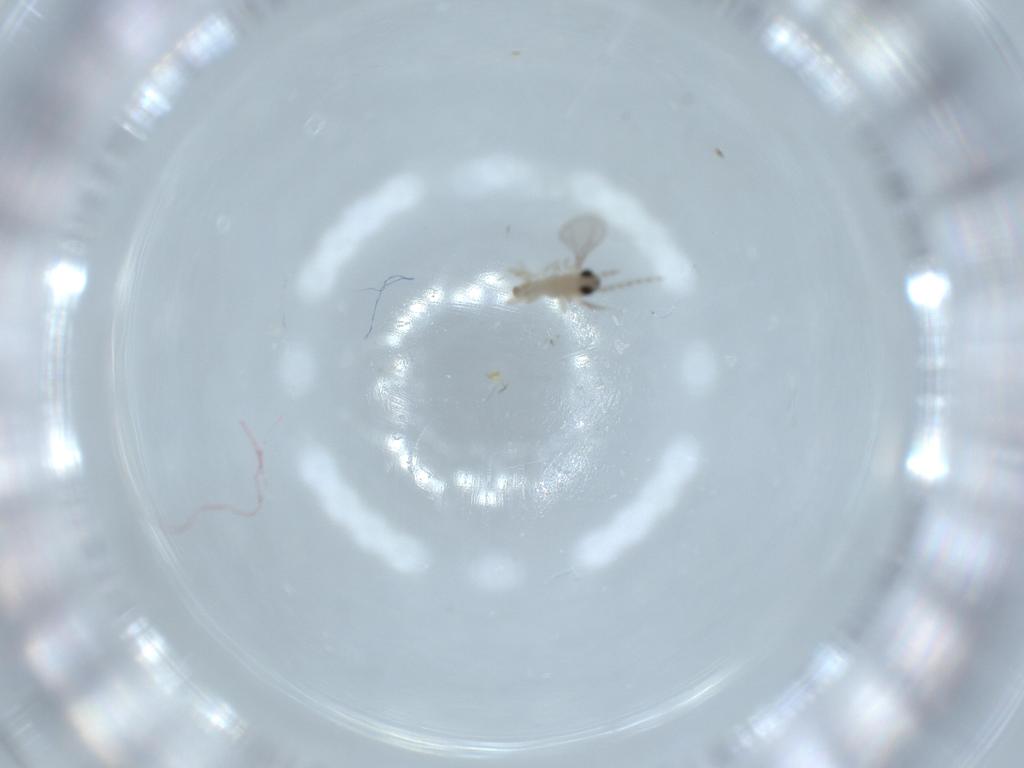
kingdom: Animalia
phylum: Arthropoda
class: Insecta
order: Diptera
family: Cecidomyiidae
